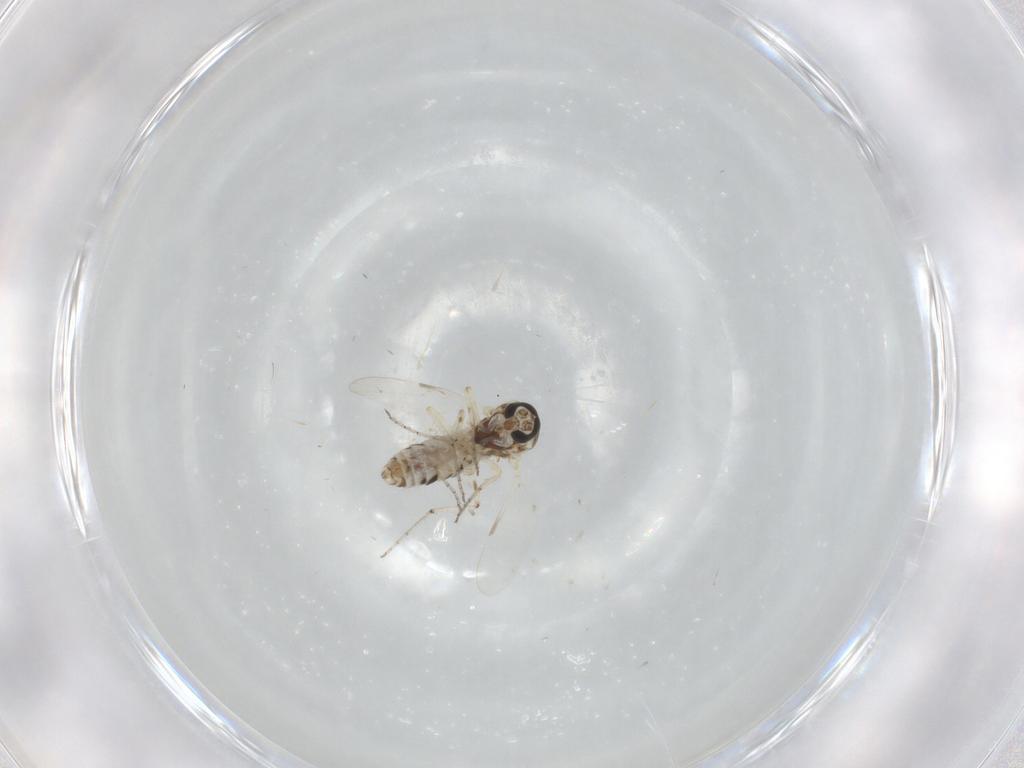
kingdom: Animalia
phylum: Arthropoda
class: Insecta
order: Diptera
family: Ceratopogonidae
